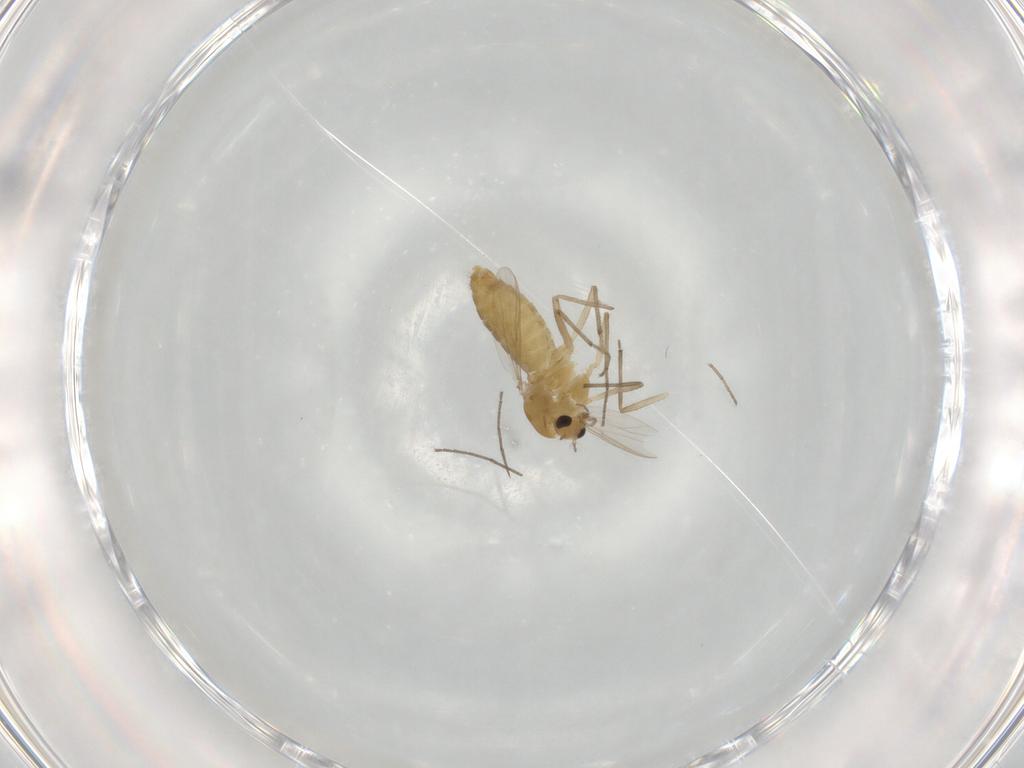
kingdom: Animalia
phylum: Arthropoda
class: Insecta
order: Diptera
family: Chironomidae
